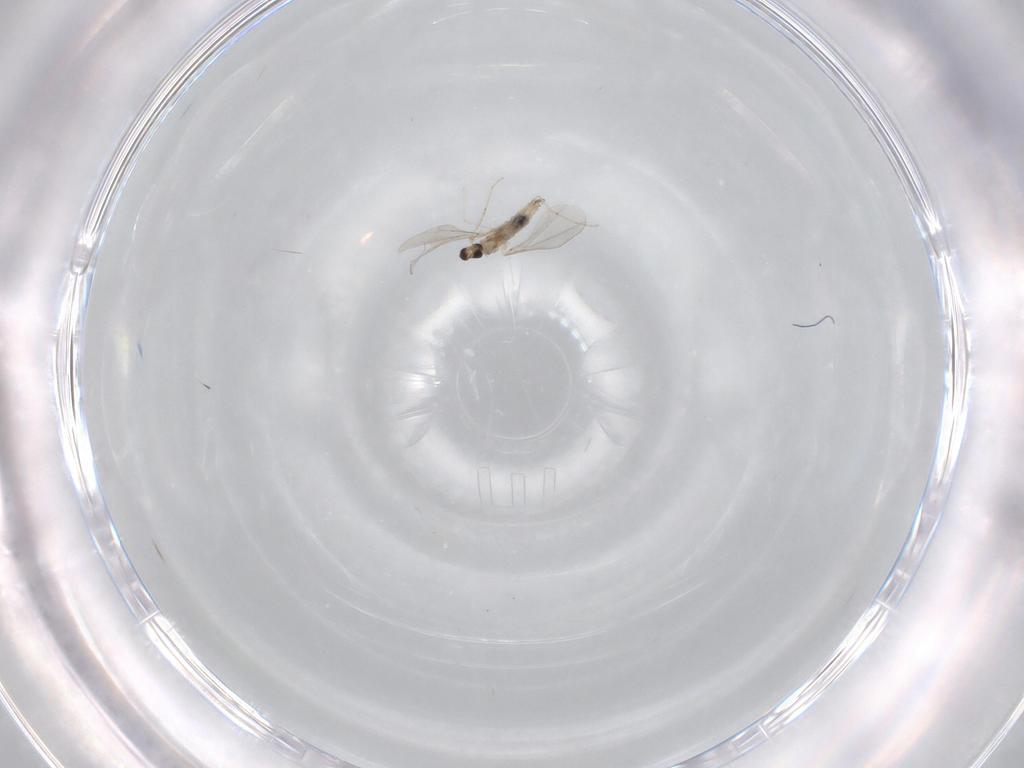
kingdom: Animalia
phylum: Arthropoda
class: Insecta
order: Diptera
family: Cecidomyiidae
